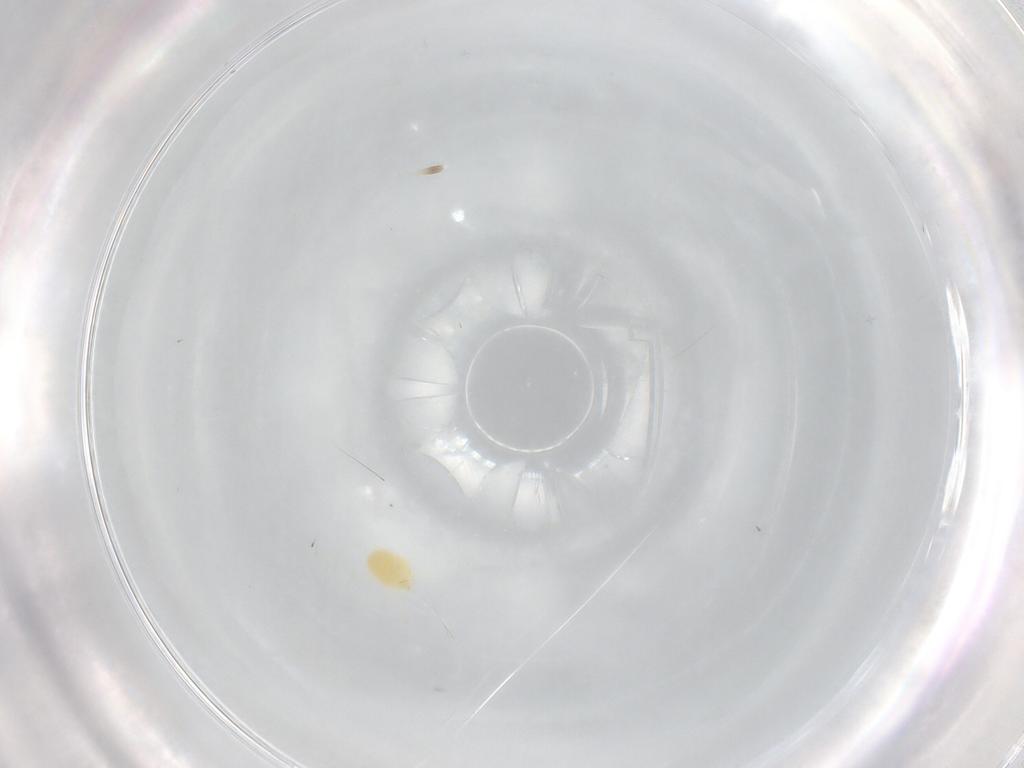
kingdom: Animalia
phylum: Arthropoda
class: Arachnida
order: Trombidiformes
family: Tetranychidae
